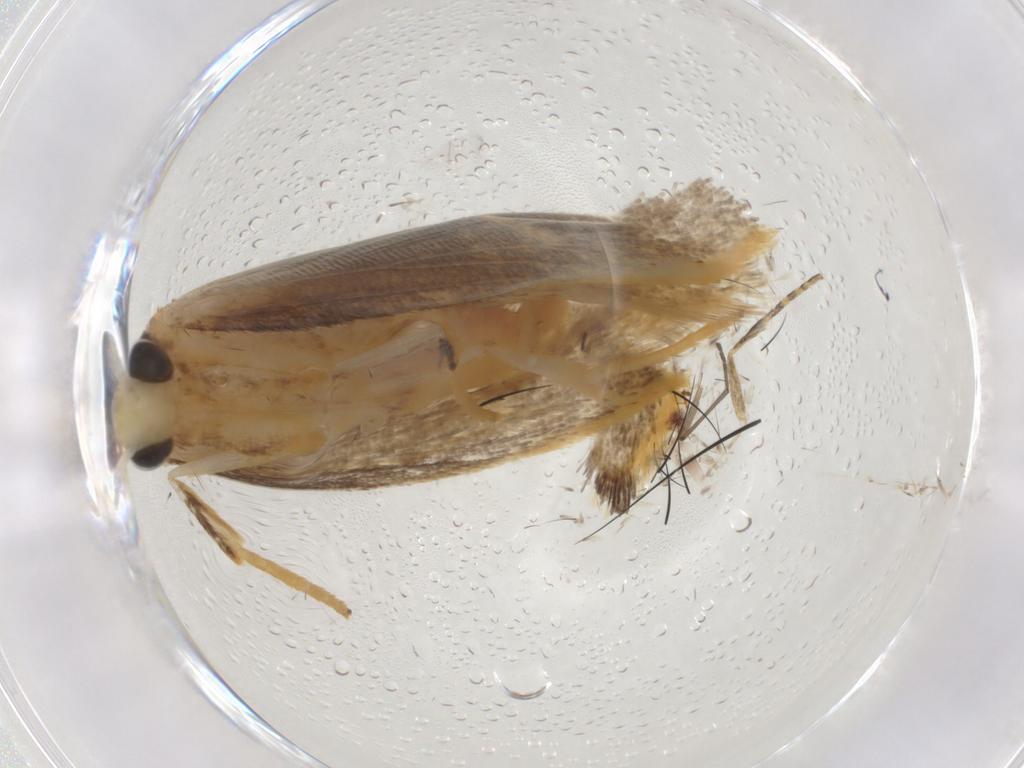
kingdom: Animalia
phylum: Arthropoda
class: Insecta
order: Lepidoptera
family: Lecithoceridae
